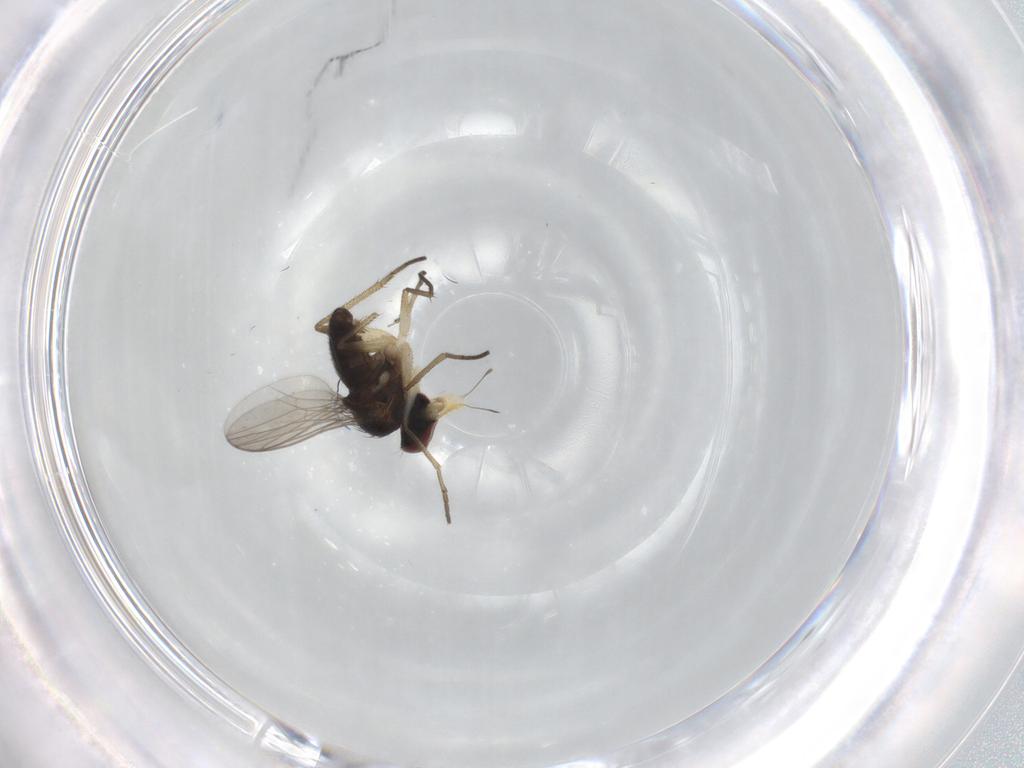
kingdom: Animalia
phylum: Arthropoda
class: Insecta
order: Diptera
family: Dolichopodidae
